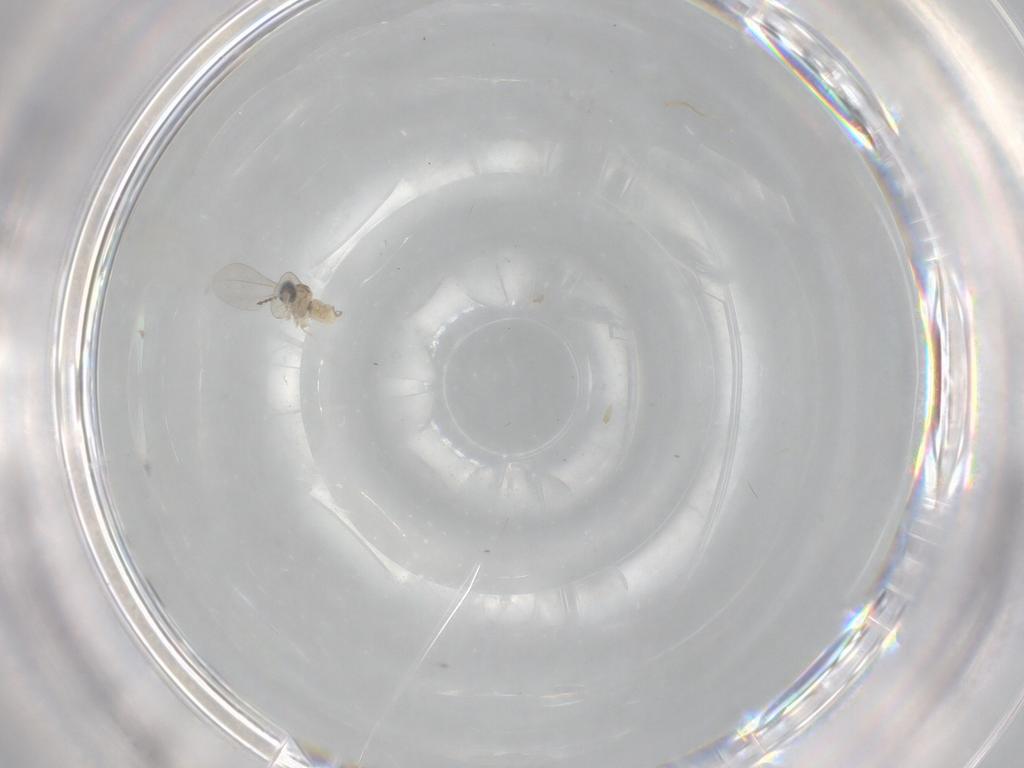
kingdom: Animalia
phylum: Arthropoda
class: Insecta
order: Diptera
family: Cecidomyiidae
